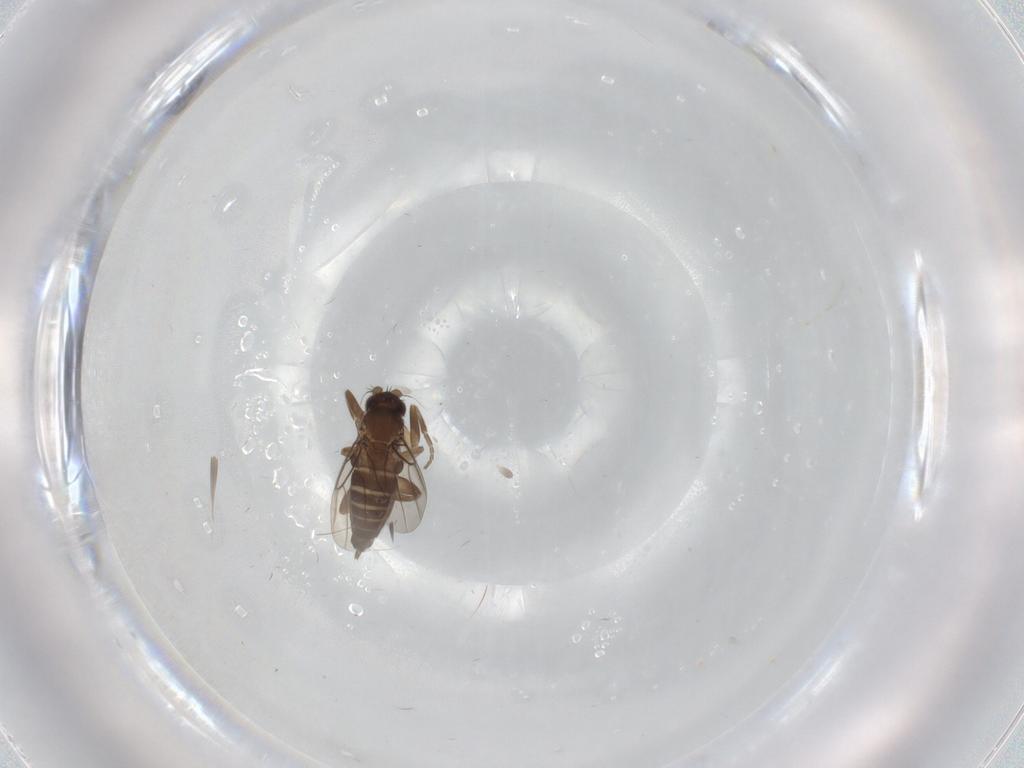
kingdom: Animalia
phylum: Arthropoda
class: Insecta
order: Diptera
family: Phoridae
